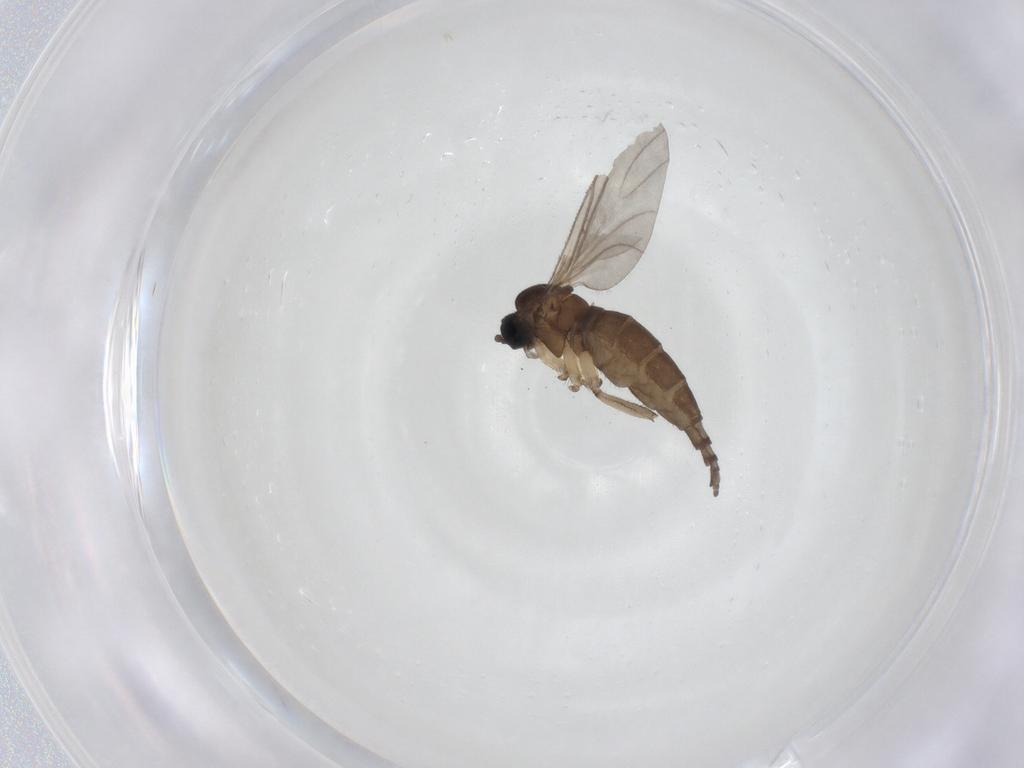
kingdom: Animalia
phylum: Arthropoda
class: Insecta
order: Diptera
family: Sciaridae
